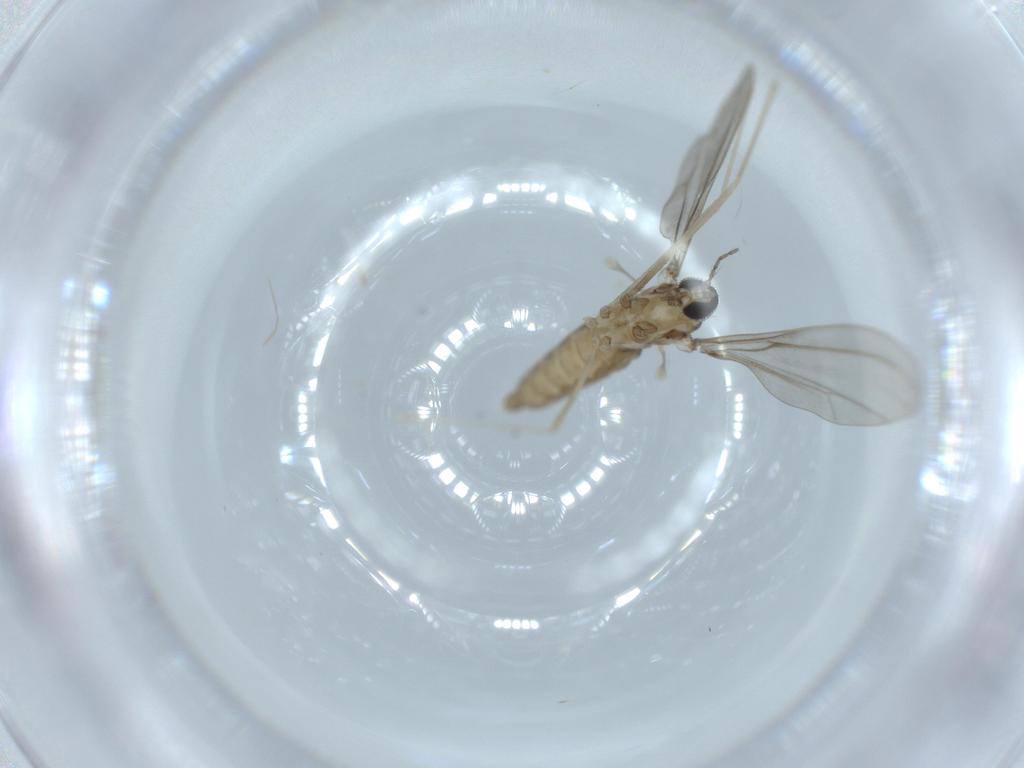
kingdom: Animalia
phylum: Arthropoda
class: Insecta
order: Diptera
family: Cecidomyiidae
